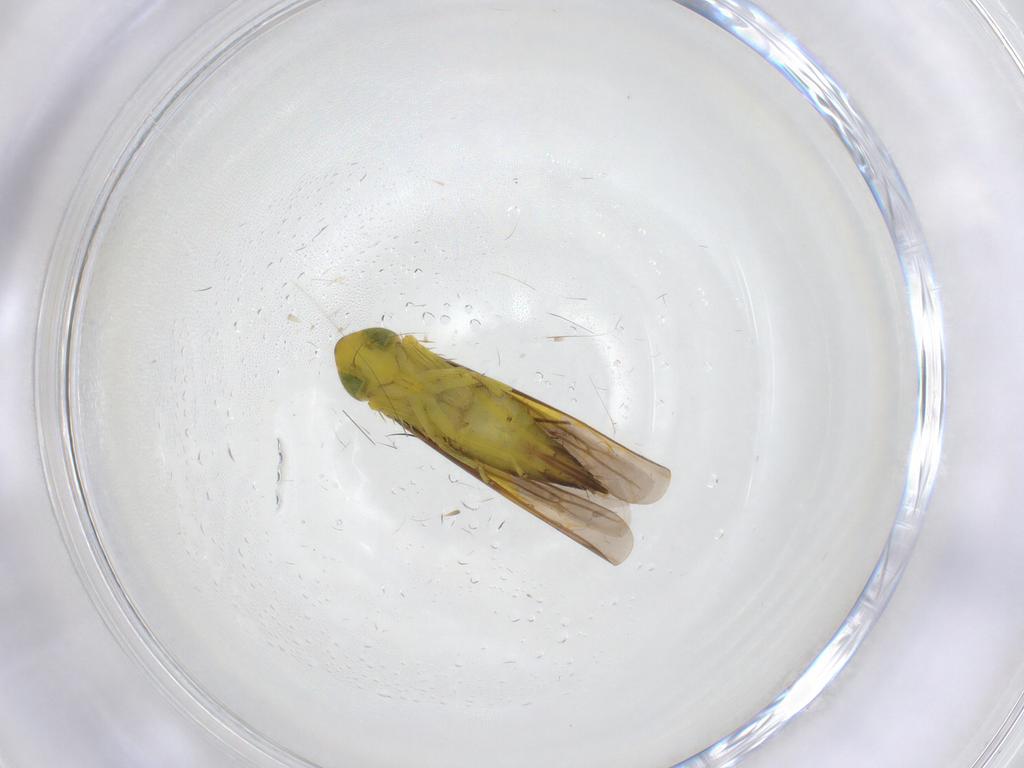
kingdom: Animalia
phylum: Arthropoda
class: Insecta
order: Hemiptera
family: Cicadellidae
